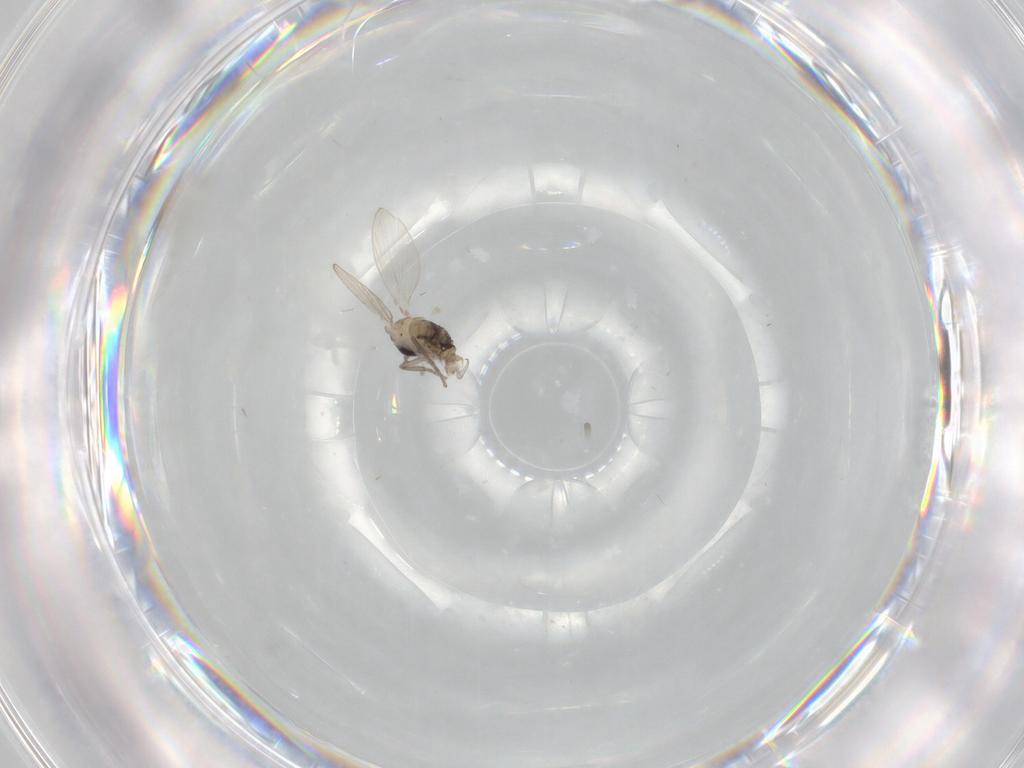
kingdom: Animalia
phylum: Arthropoda
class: Insecta
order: Diptera
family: Psychodidae
